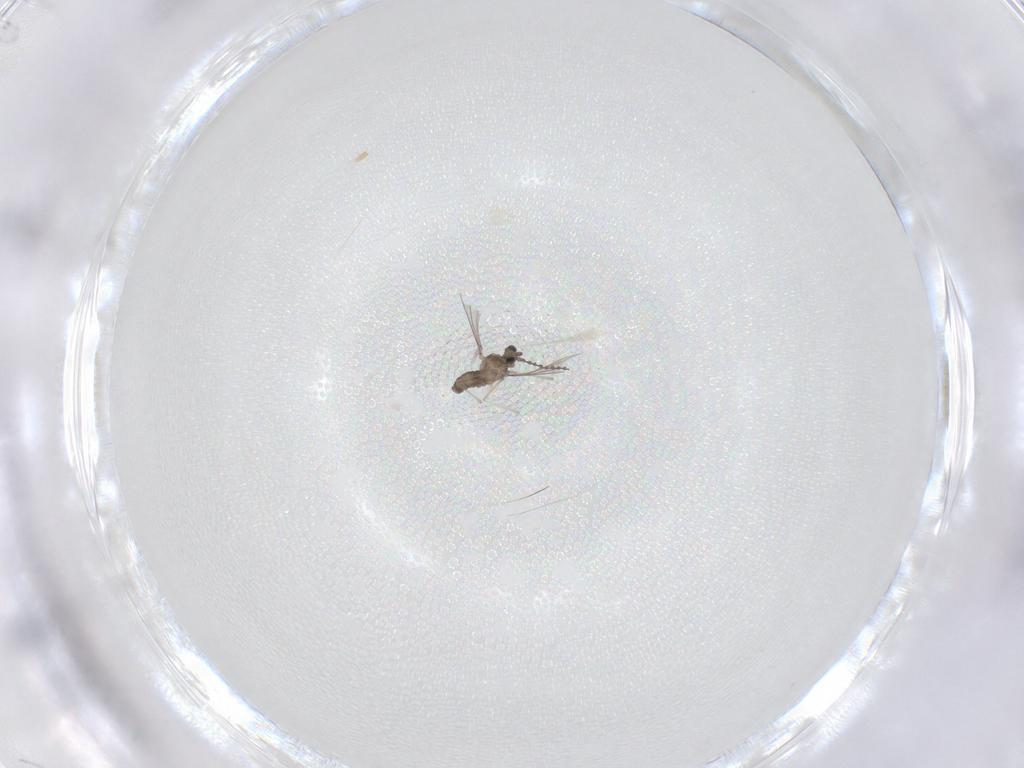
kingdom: Animalia
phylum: Arthropoda
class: Insecta
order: Diptera
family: Cecidomyiidae
